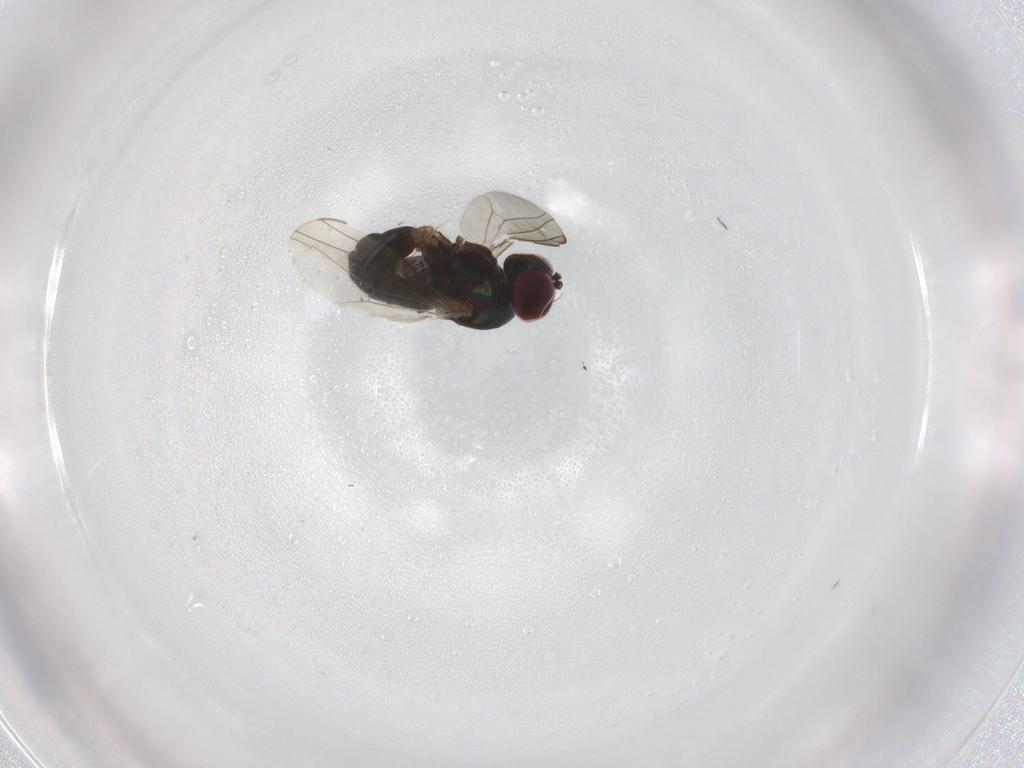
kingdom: Animalia
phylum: Arthropoda
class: Insecta
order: Diptera
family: Dolichopodidae
